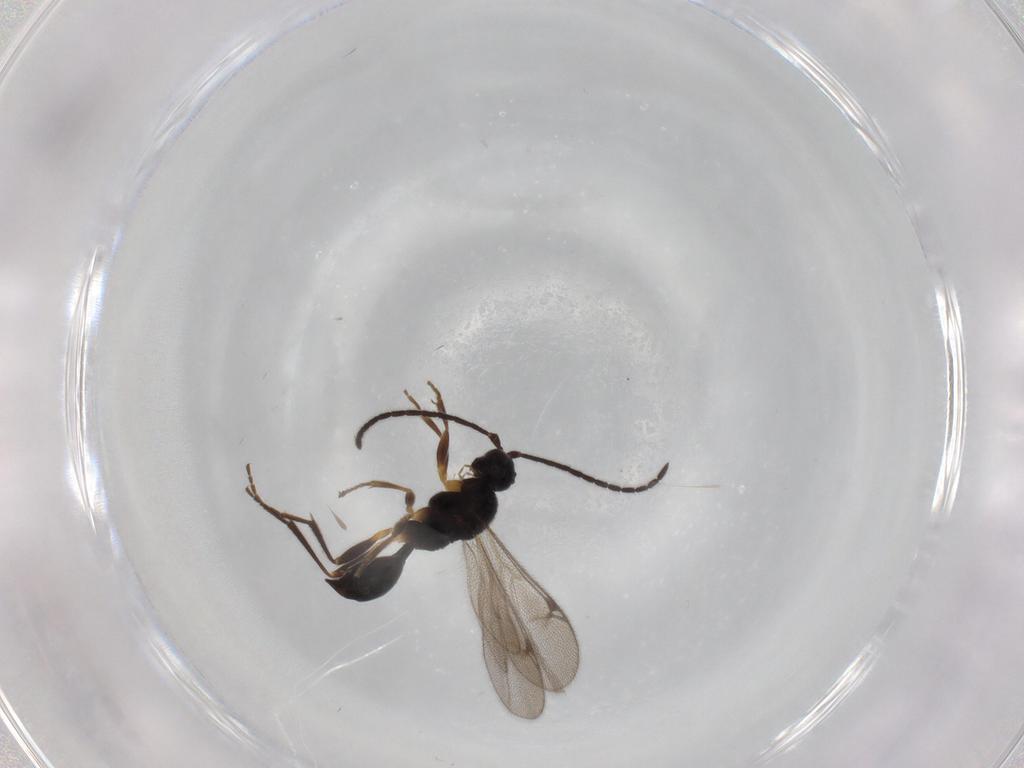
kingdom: Animalia
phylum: Arthropoda
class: Insecta
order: Hymenoptera
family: Proctotrupidae
